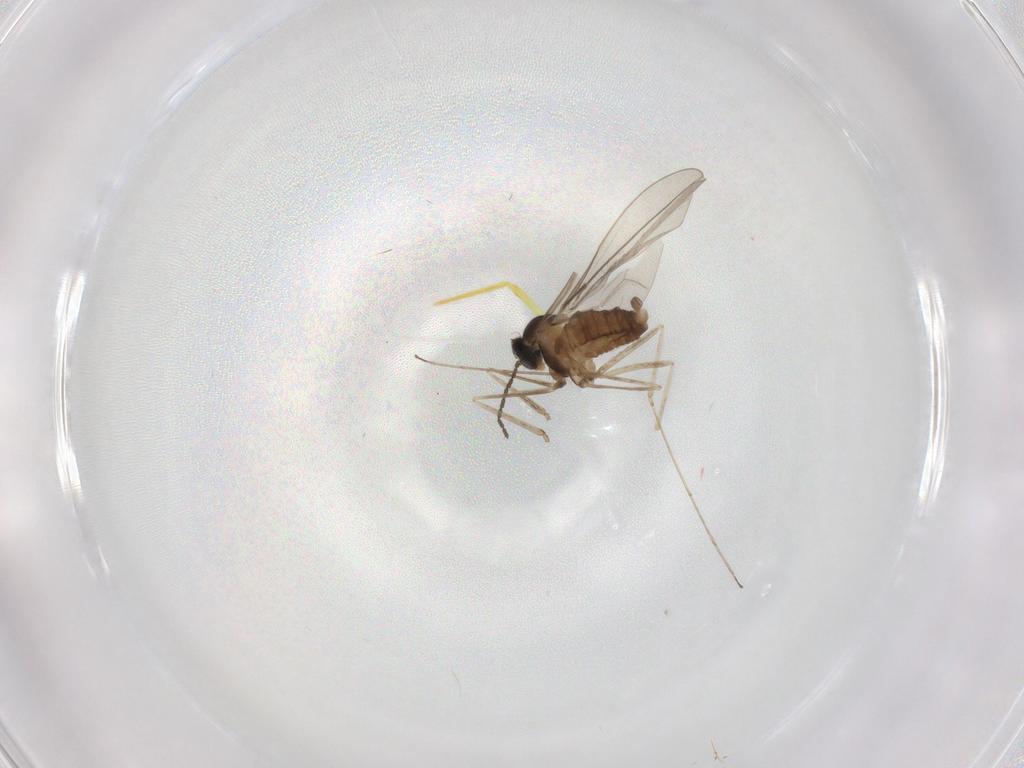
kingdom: Animalia
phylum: Arthropoda
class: Insecta
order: Diptera
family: Cecidomyiidae
